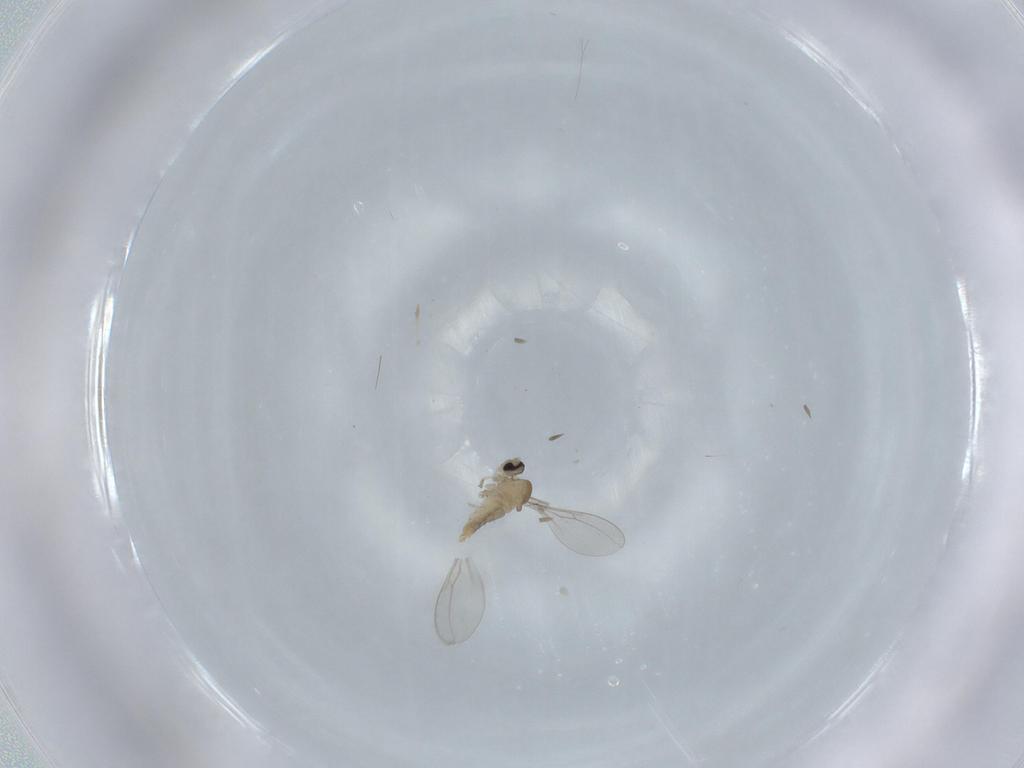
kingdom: Animalia
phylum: Arthropoda
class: Insecta
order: Diptera
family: Cecidomyiidae
